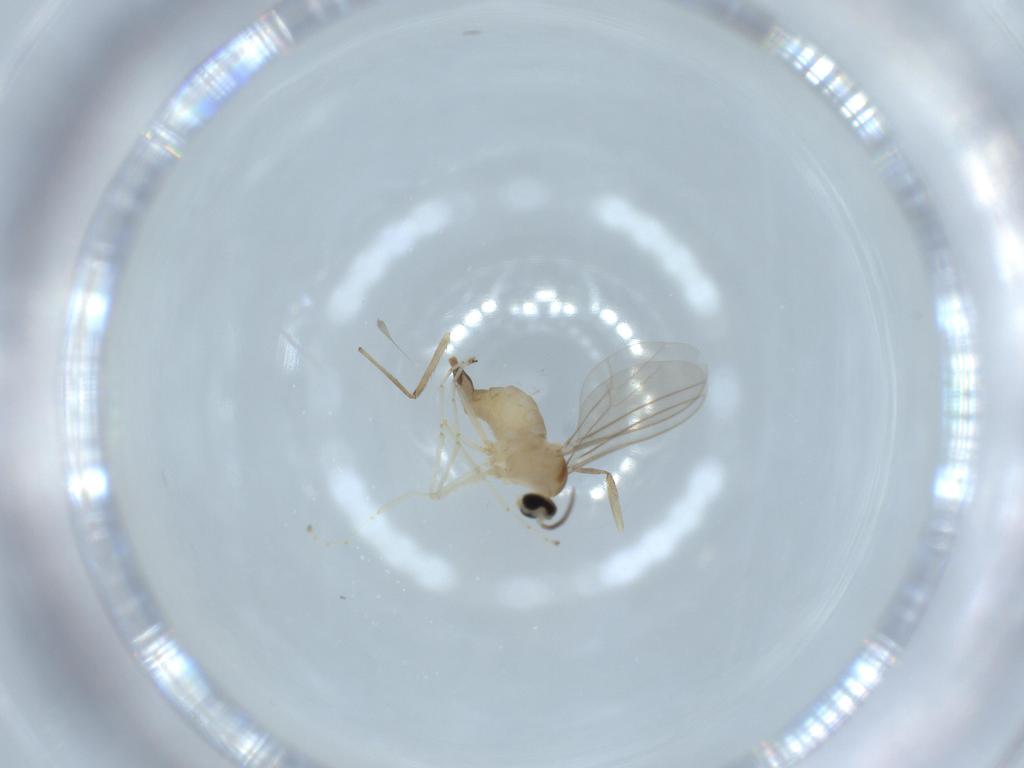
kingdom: Animalia
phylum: Arthropoda
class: Insecta
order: Diptera
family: Cecidomyiidae
